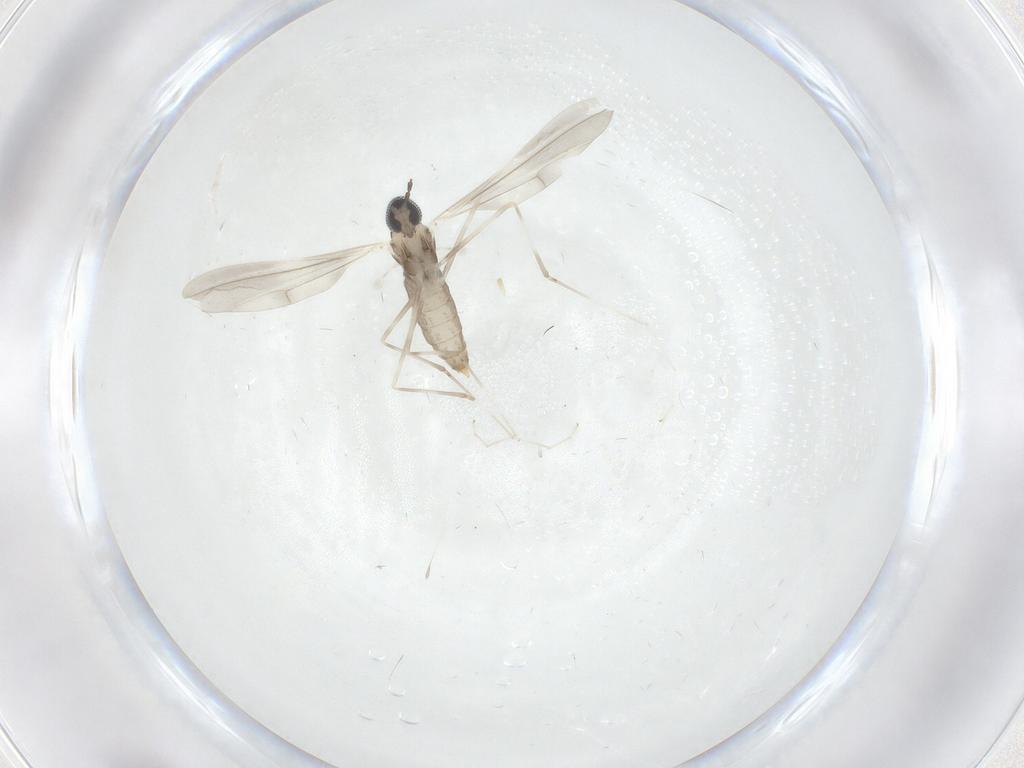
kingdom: Animalia
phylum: Arthropoda
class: Insecta
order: Diptera
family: Cecidomyiidae
